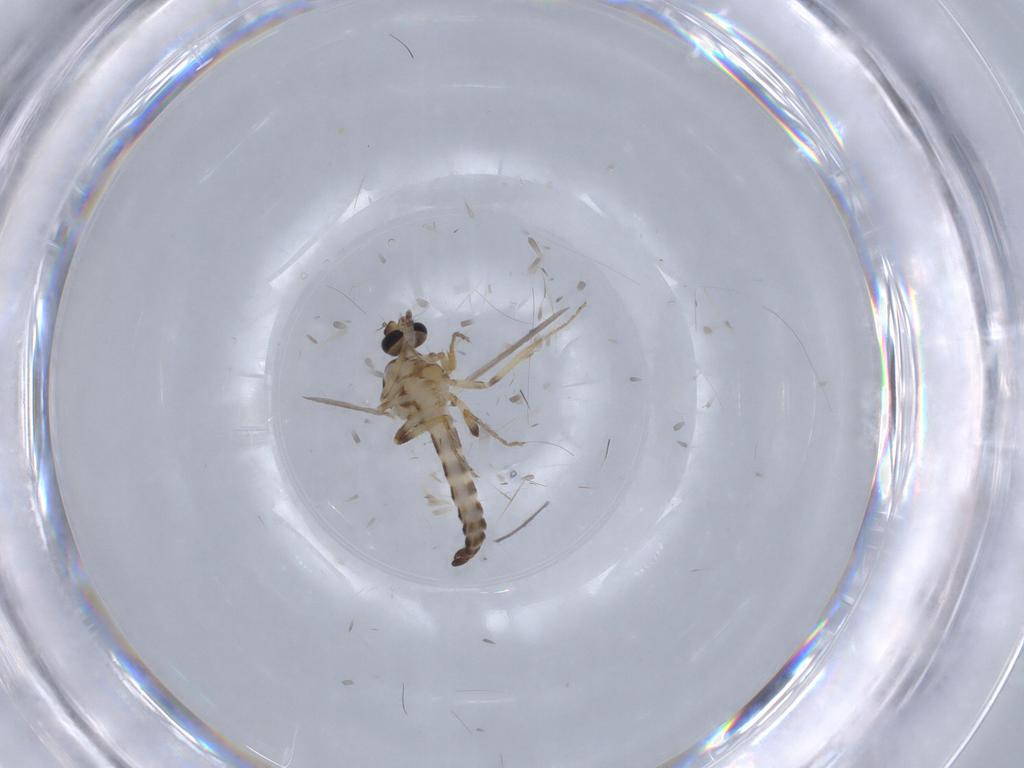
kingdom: Animalia
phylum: Arthropoda
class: Insecta
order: Diptera
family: Ceratopogonidae
